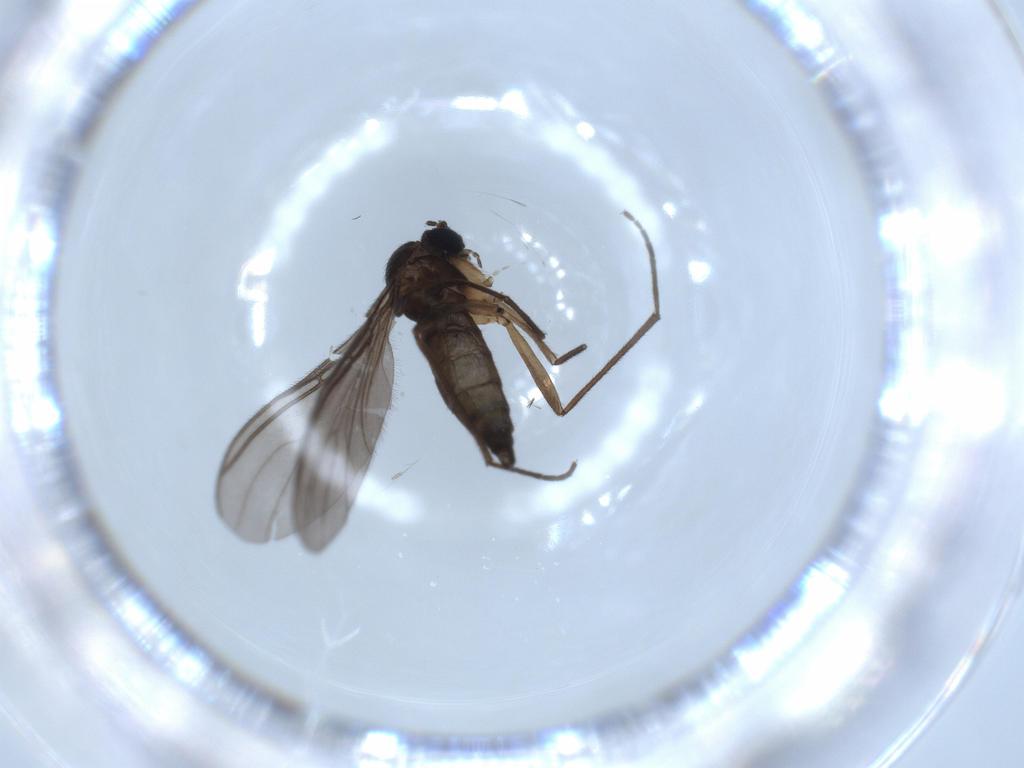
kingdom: Animalia
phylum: Arthropoda
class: Insecta
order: Diptera
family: Sciaridae
